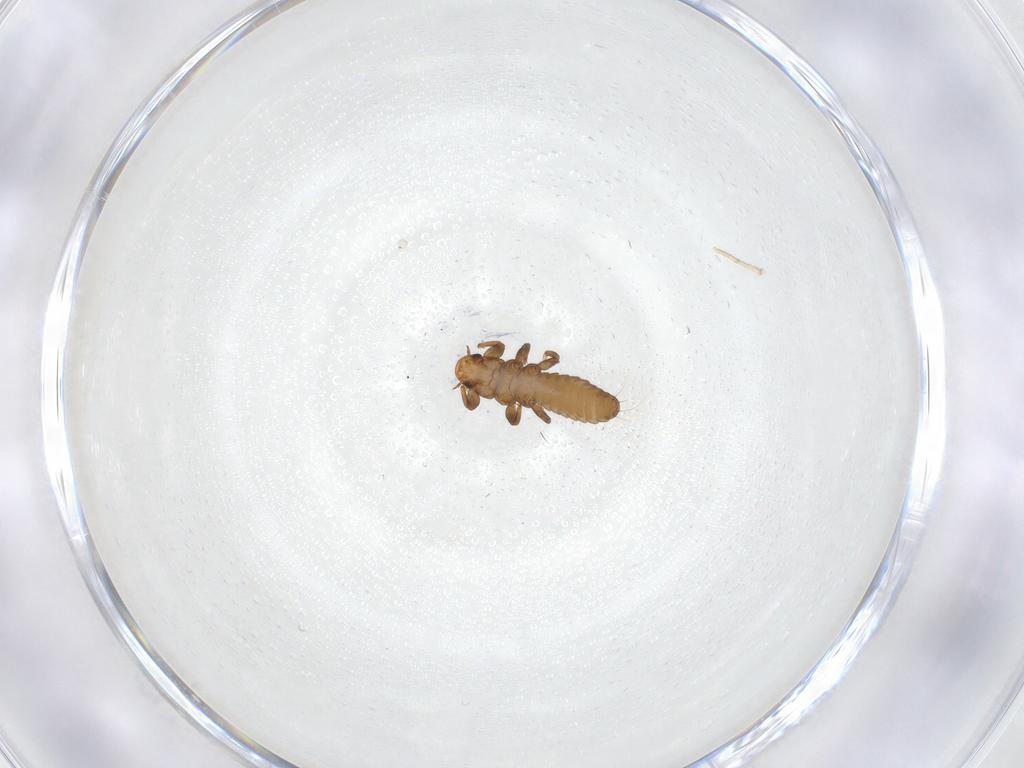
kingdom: Animalia
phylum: Arthropoda
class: Insecta
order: Coleoptera
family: Meloidae
